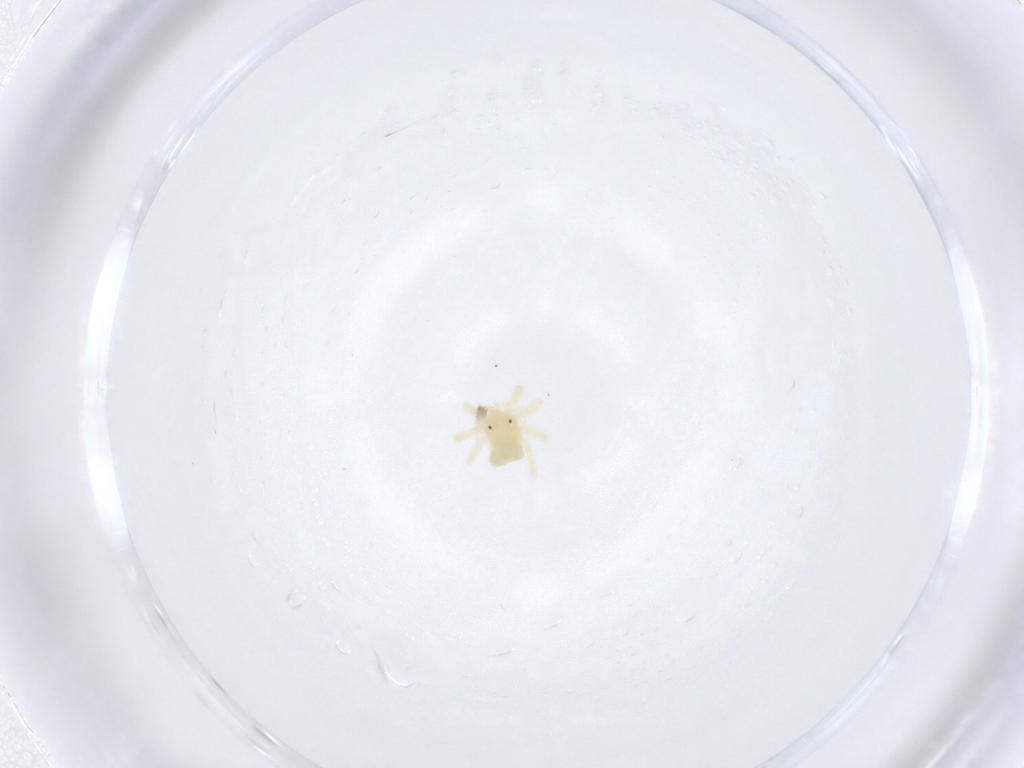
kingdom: Animalia
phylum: Arthropoda
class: Arachnida
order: Trombidiformes
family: Anystidae
